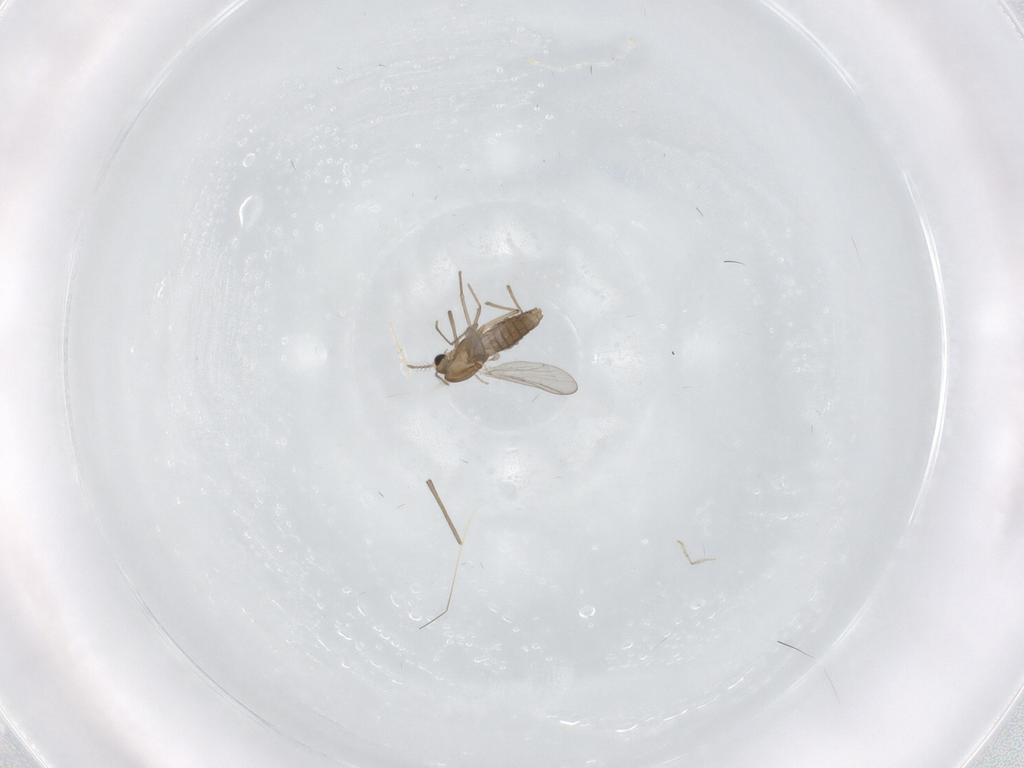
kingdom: Animalia
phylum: Arthropoda
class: Insecta
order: Diptera
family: Chironomidae
